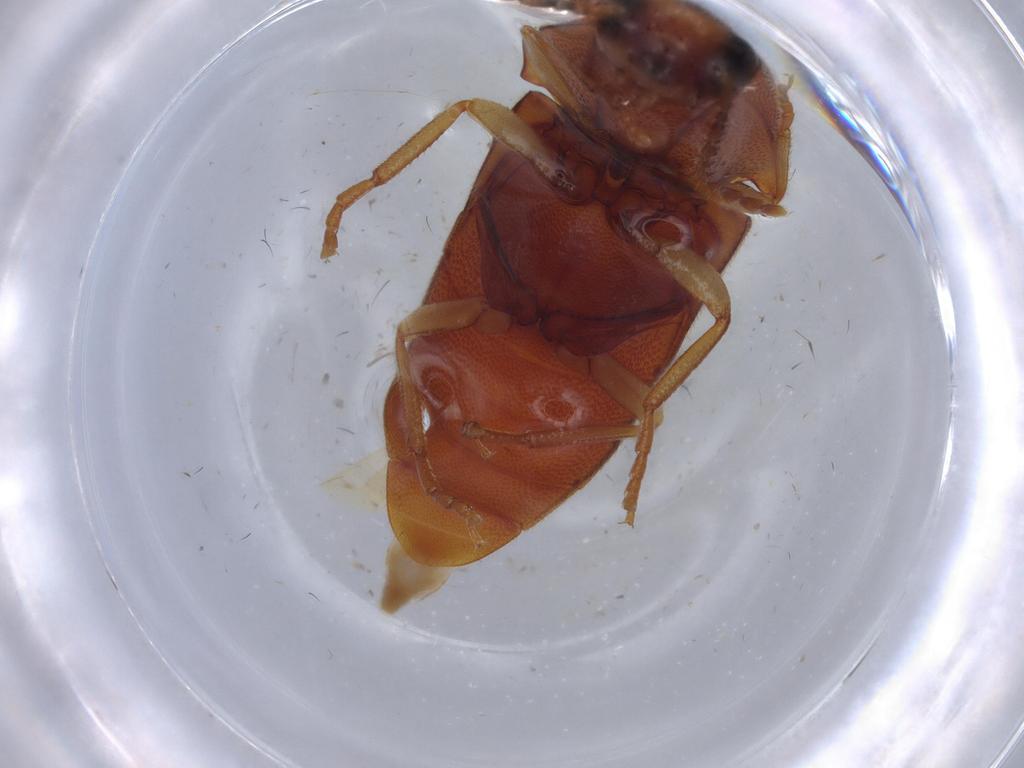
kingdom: Animalia
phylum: Arthropoda
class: Insecta
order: Coleoptera
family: Nitidulidae
